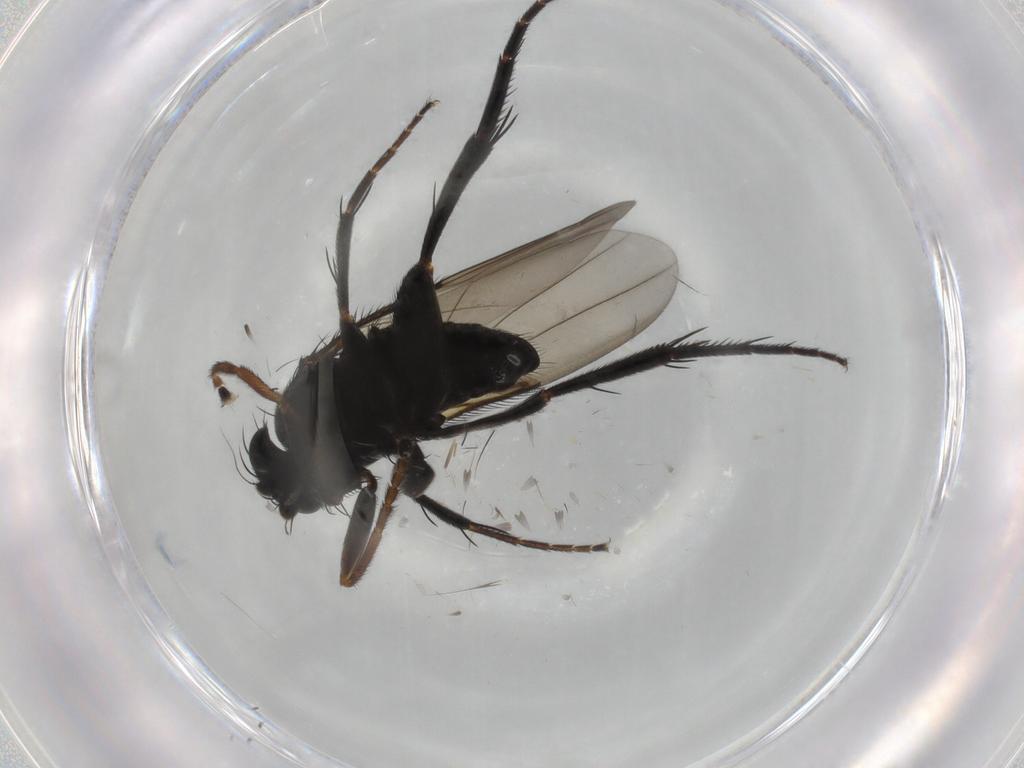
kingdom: Animalia
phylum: Arthropoda
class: Insecta
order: Diptera
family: Phoridae
